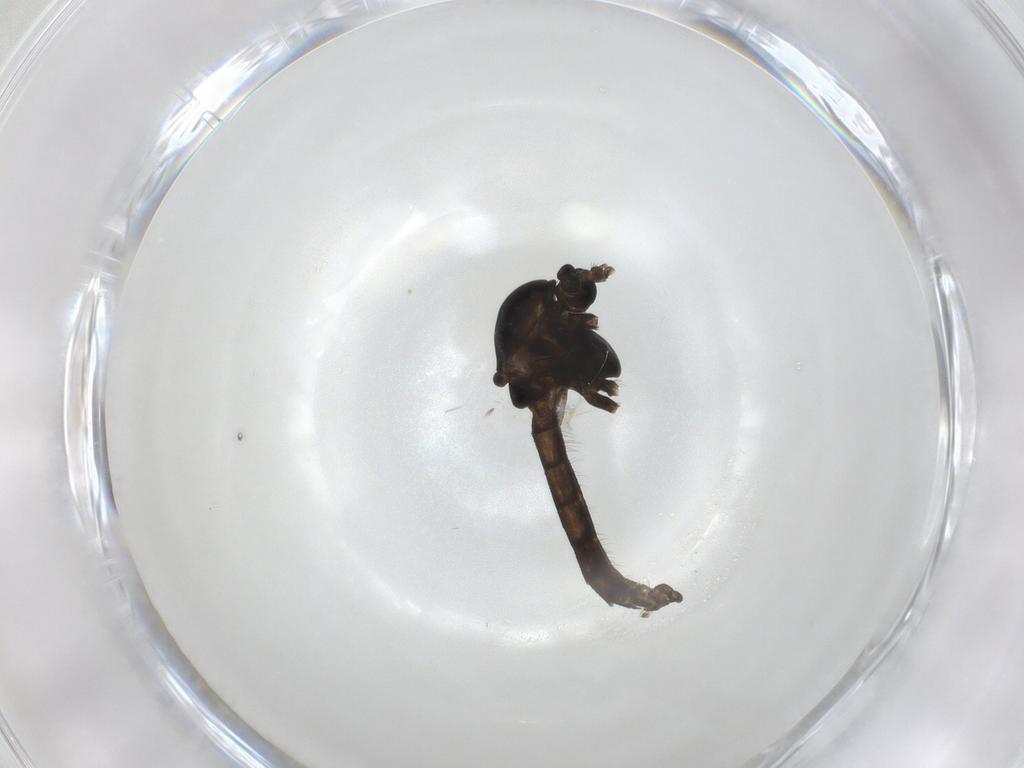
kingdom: Animalia
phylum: Arthropoda
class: Insecta
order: Diptera
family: Chironomidae
